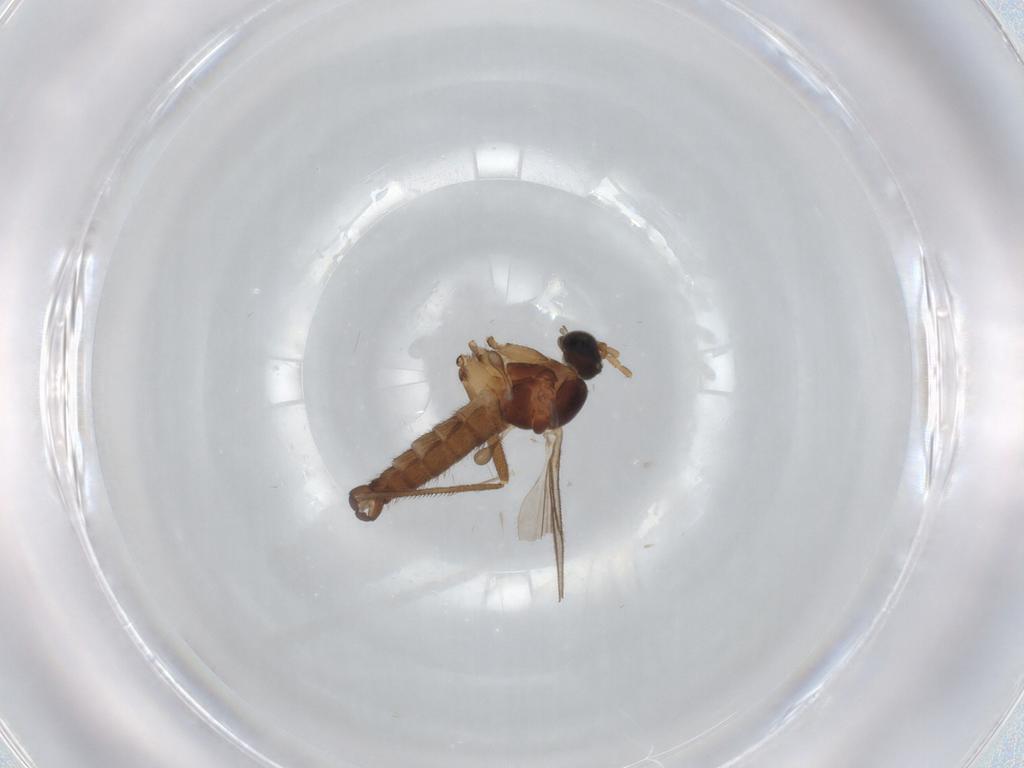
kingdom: Animalia
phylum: Arthropoda
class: Insecta
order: Diptera
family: Sciaridae
